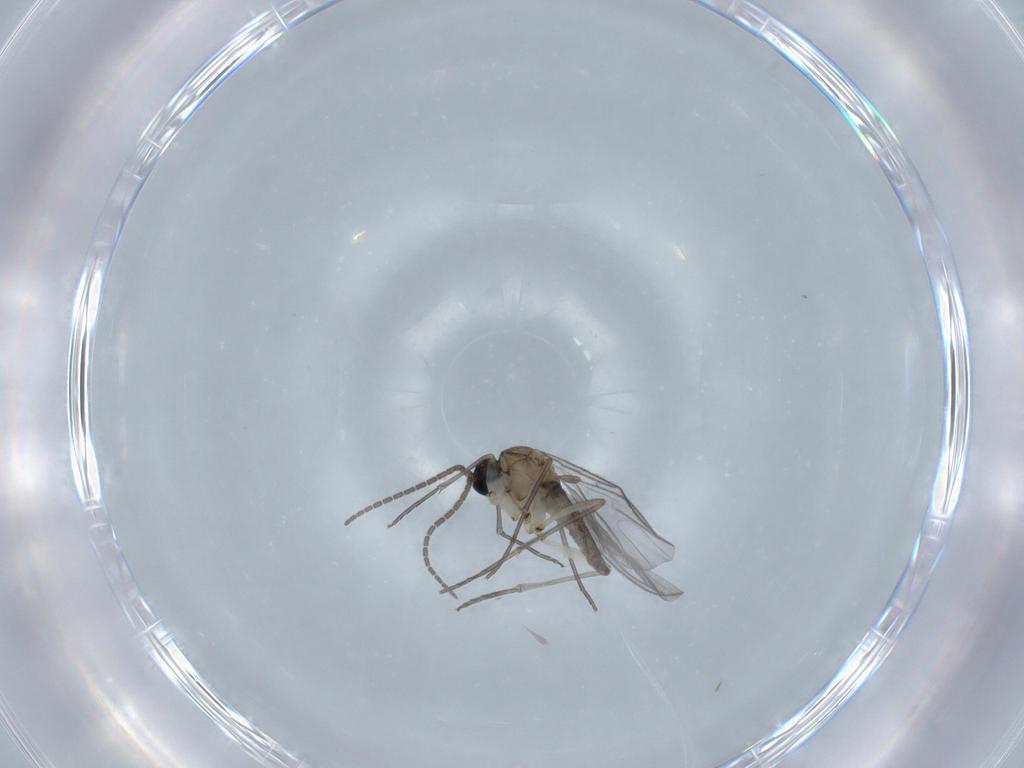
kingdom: Animalia
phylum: Arthropoda
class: Insecta
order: Diptera
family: Sciaridae
